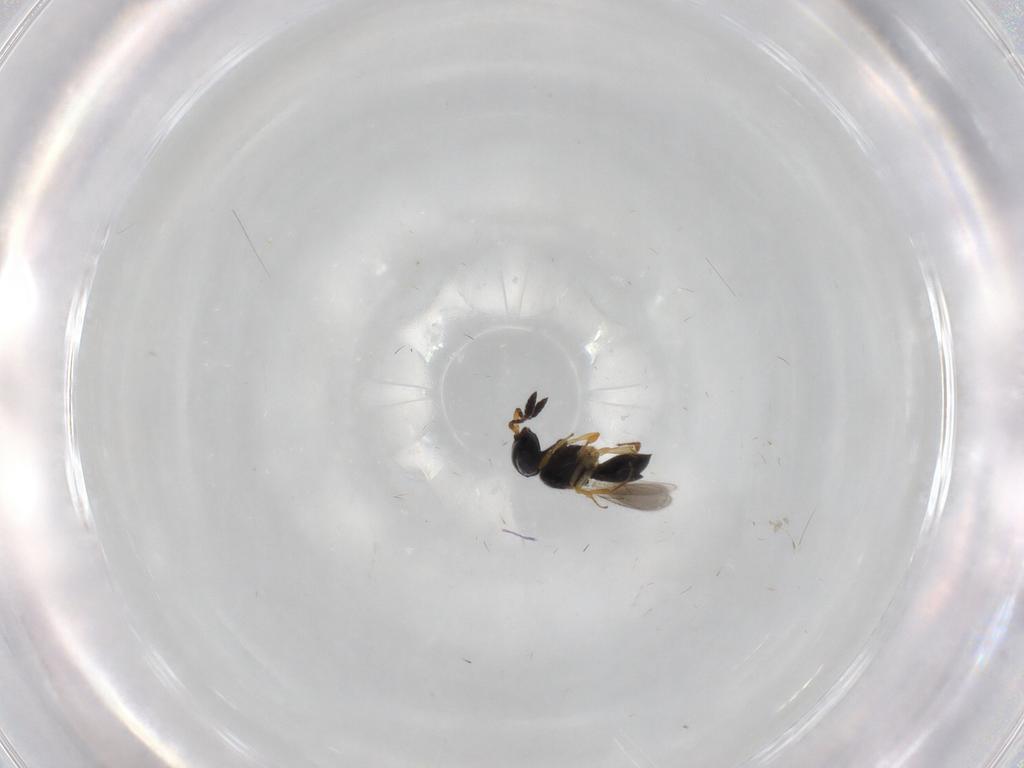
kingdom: Animalia
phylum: Arthropoda
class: Insecta
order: Hymenoptera
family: Scelionidae
